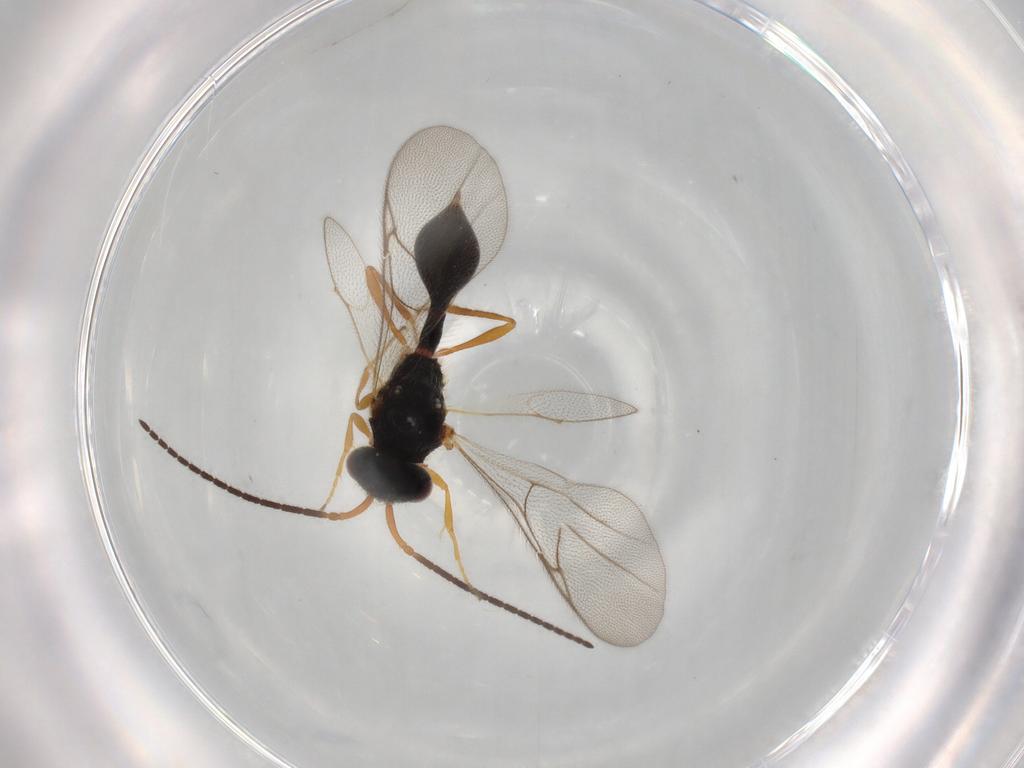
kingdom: Animalia
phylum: Arthropoda
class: Insecta
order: Hymenoptera
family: Diapriidae
